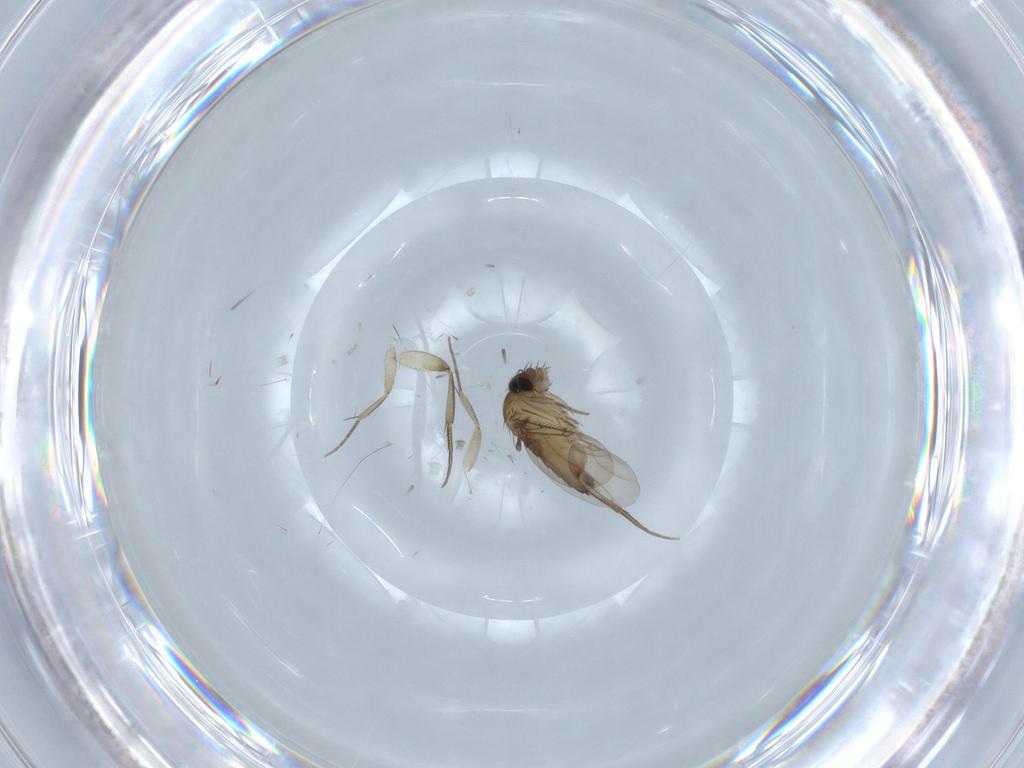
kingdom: Animalia
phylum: Arthropoda
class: Insecta
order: Diptera
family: Phoridae
